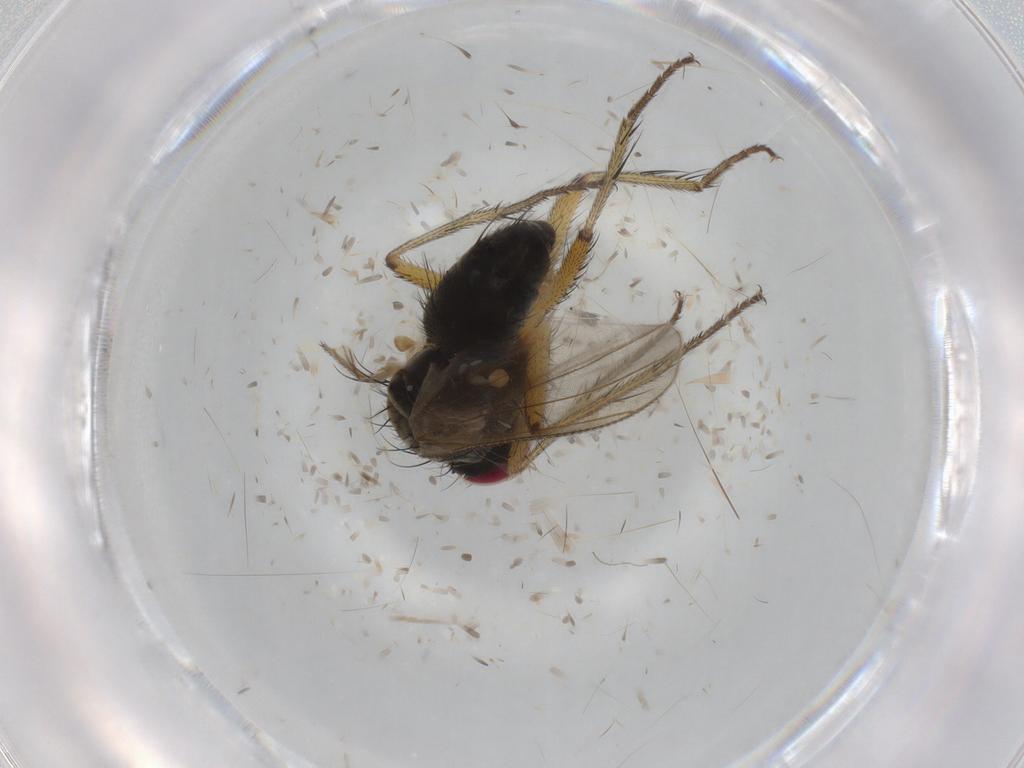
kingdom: Animalia
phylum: Arthropoda
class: Insecta
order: Diptera
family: Muscidae
